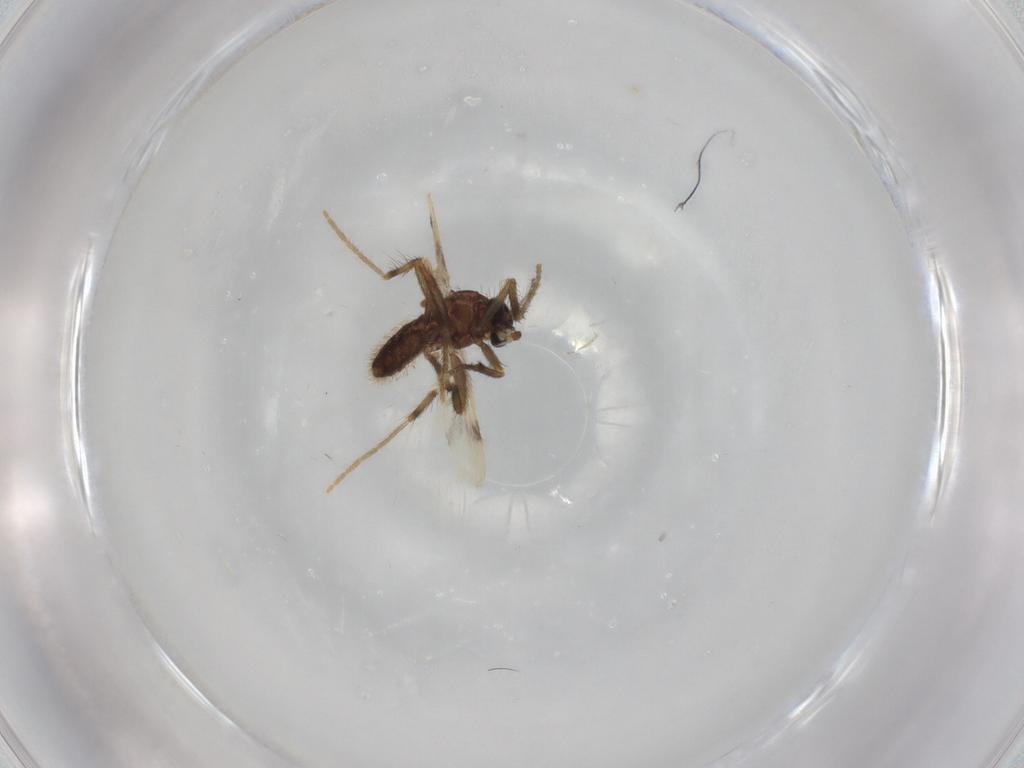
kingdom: Animalia
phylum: Arthropoda
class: Insecta
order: Diptera
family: Corethrellidae
